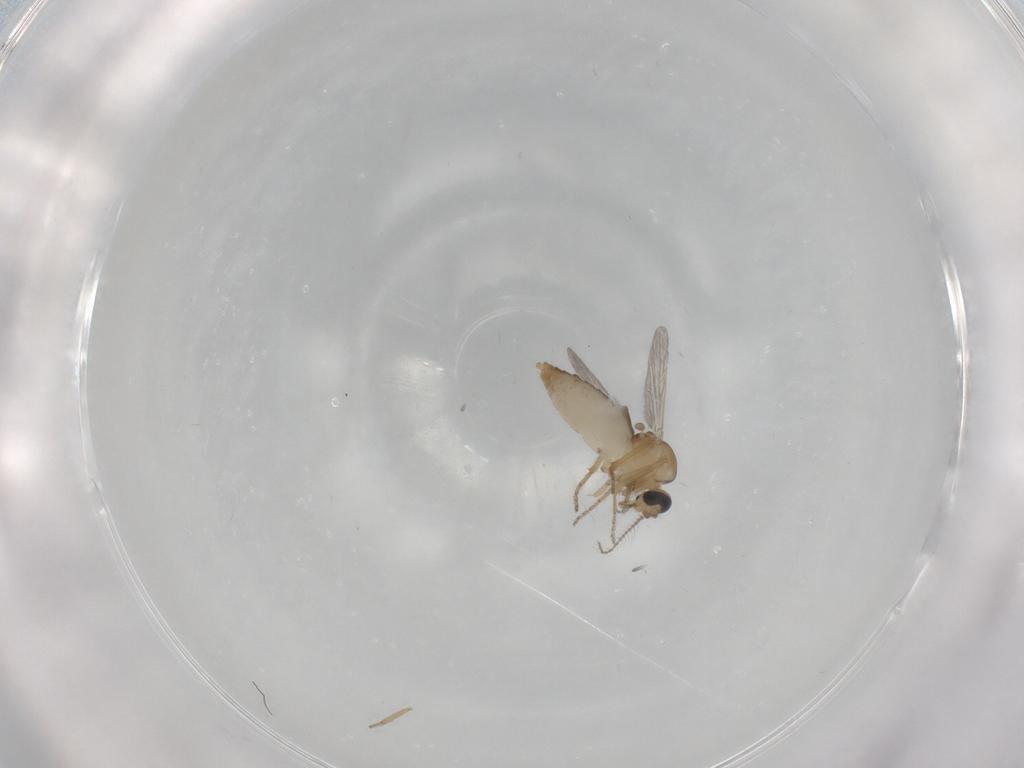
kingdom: Animalia
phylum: Arthropoda
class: Insecta
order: Diptera
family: Ceratopogonidae
